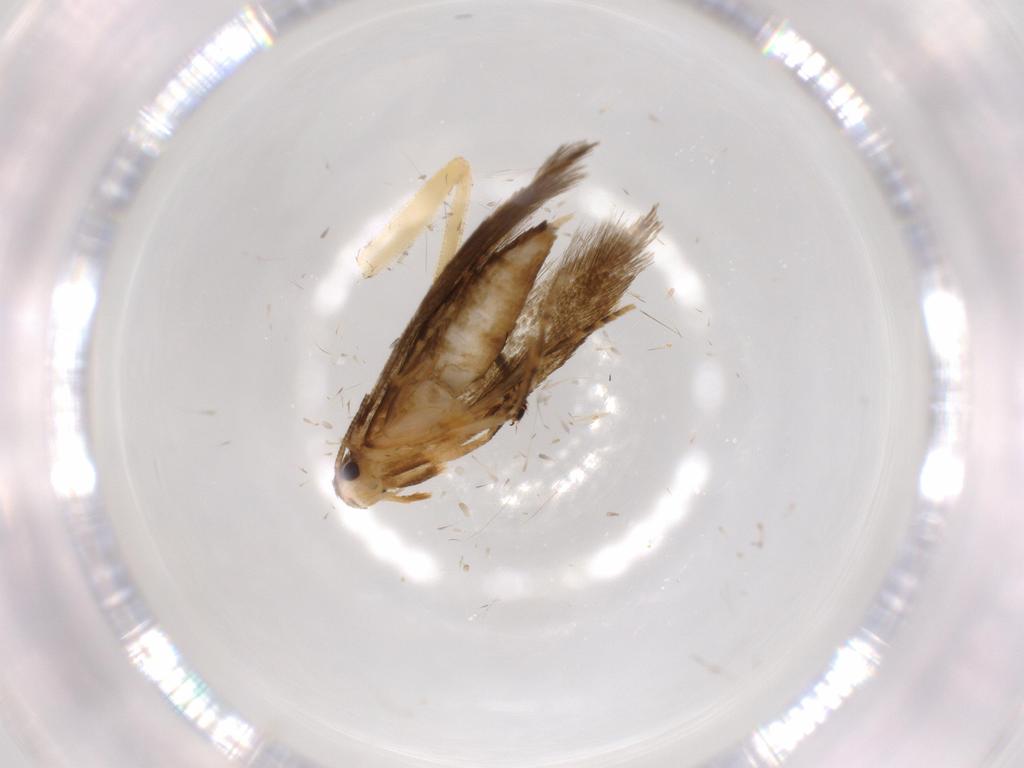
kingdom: Animalia
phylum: Arthropoda
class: Insecta
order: Lepidoptera
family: Tineidae
